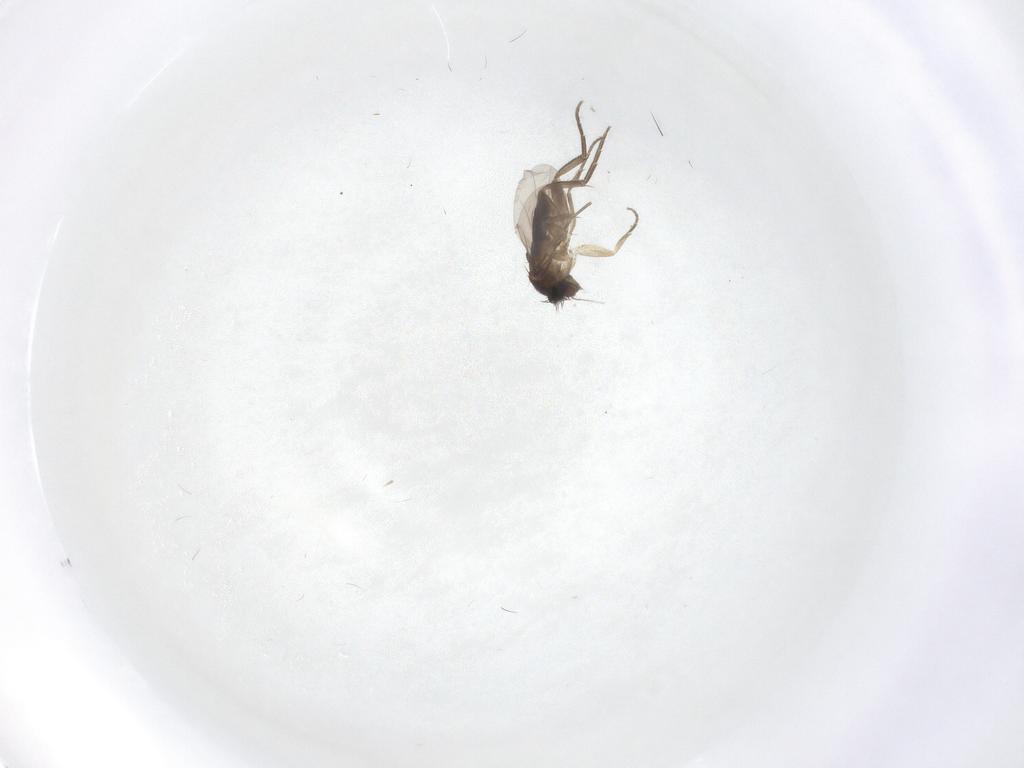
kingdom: Animalia
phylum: Arthropoda
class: Insecta
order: Diptera
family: Phoridae
